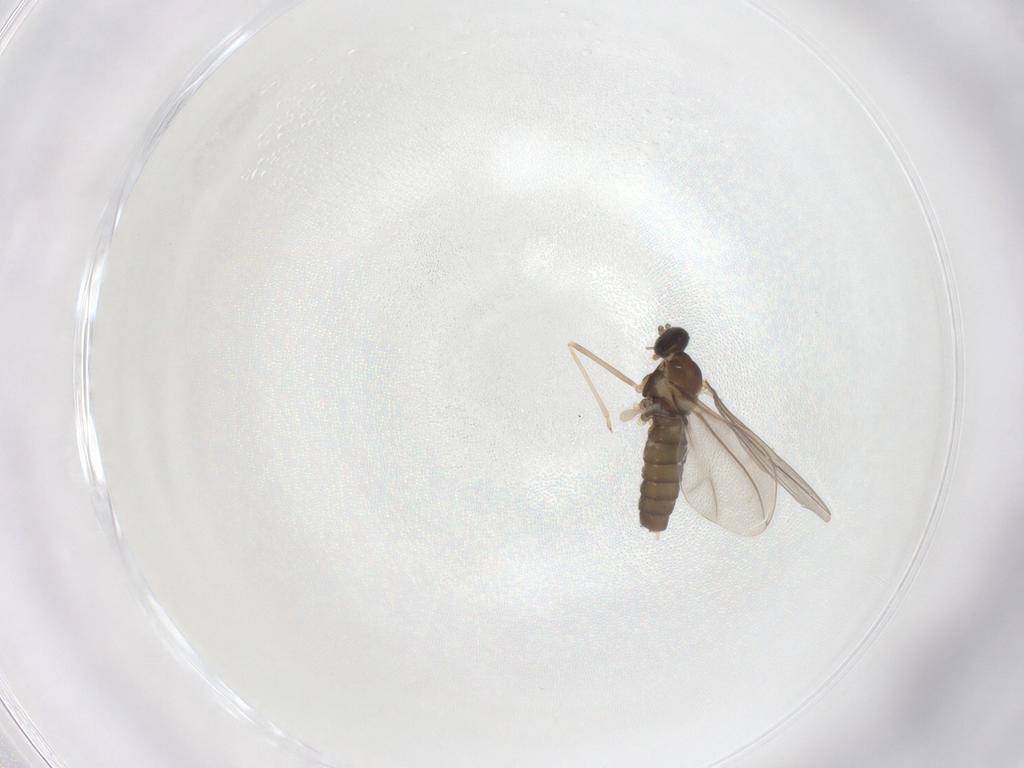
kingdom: Animalia
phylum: Arthropoda
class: Insecta
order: Diptera
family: Cecidomyiidae
